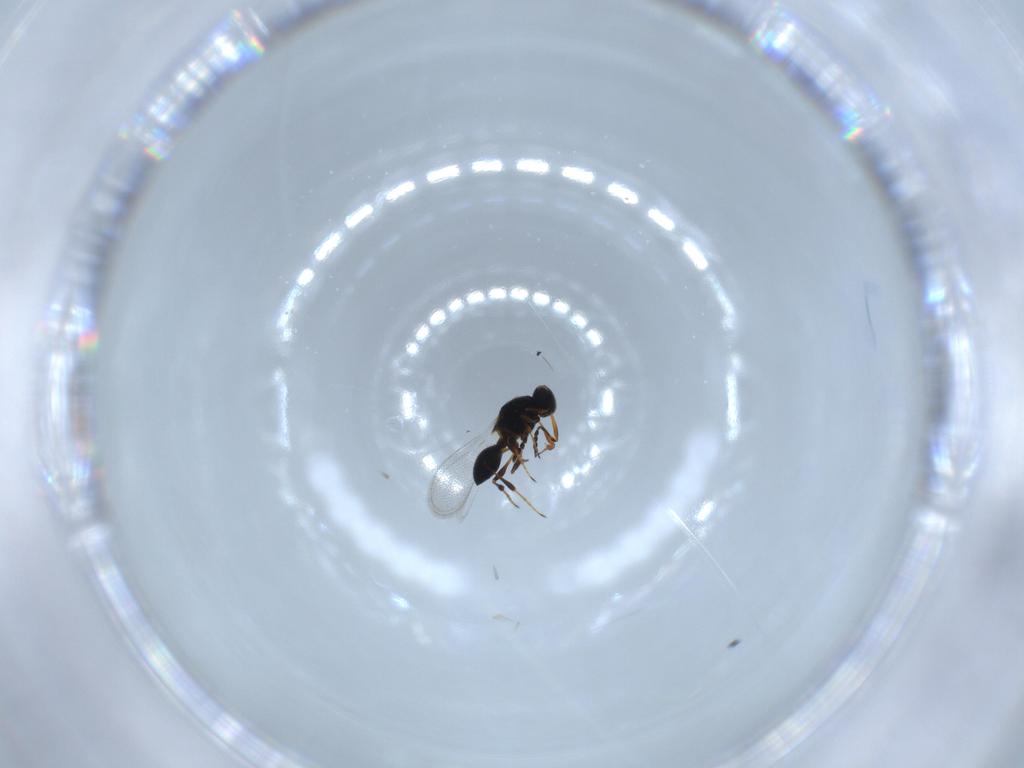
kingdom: Animalia
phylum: Arthropoda
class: Insecta
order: Hymenoptera
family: Platygastridae
